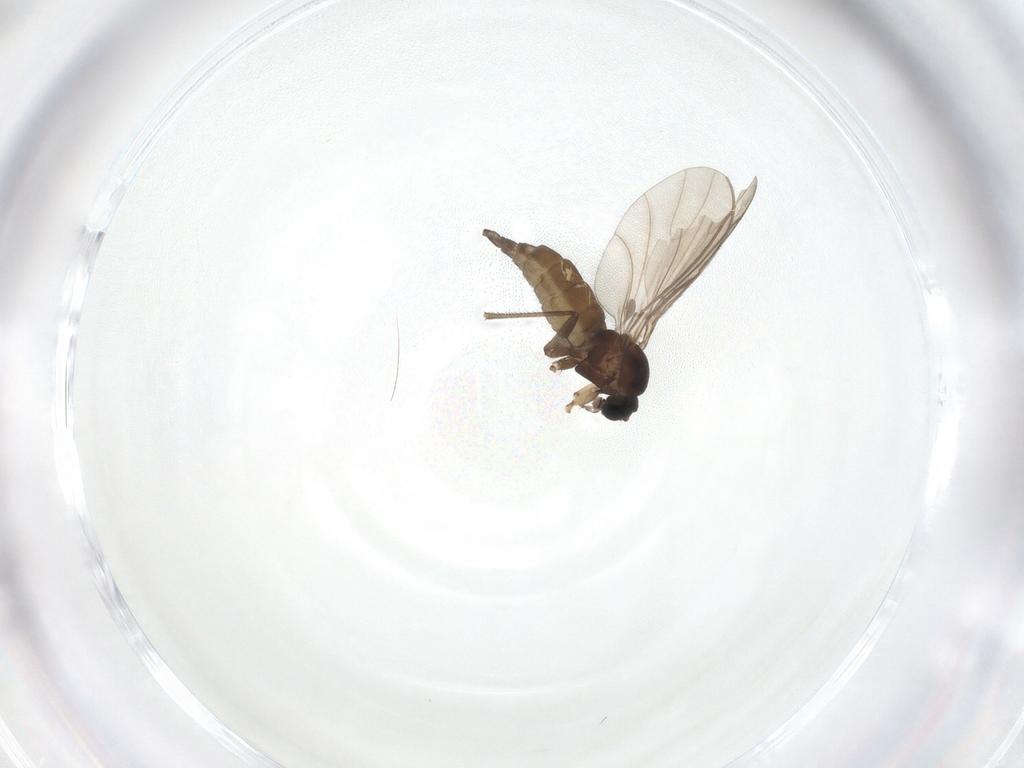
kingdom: Animalia
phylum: Arthropoda
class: Insecta
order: Diptera
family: Sciaridae
